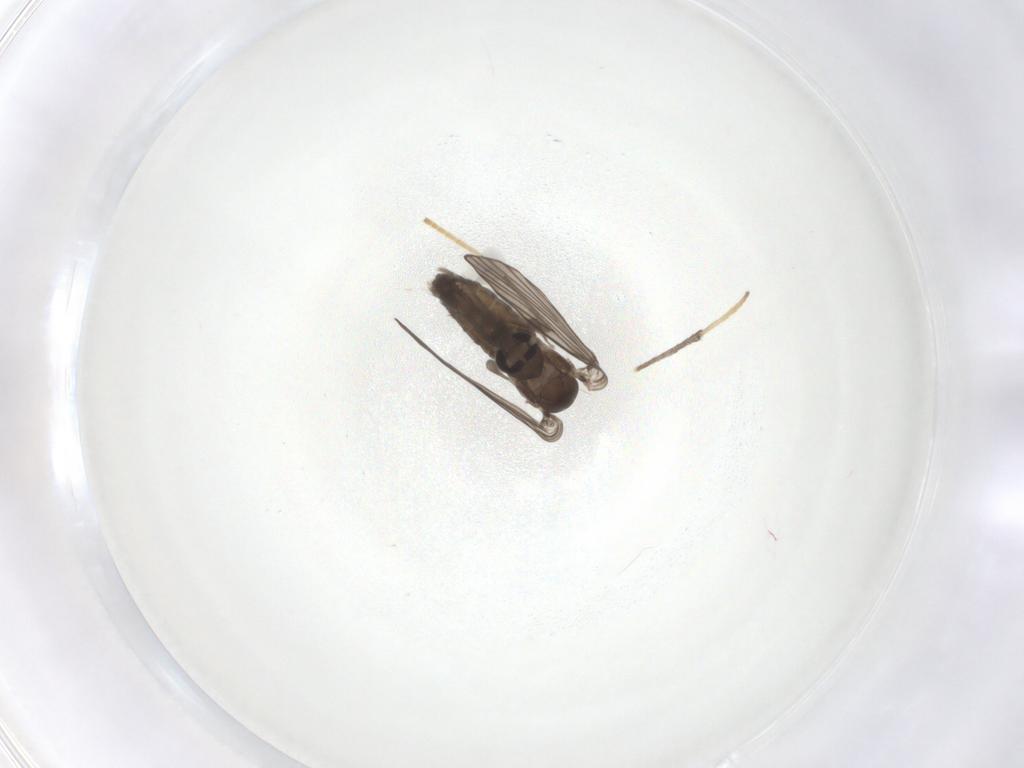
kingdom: Animalia
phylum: Arthropoda
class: Insecta
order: Diptera
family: Psychodidae
